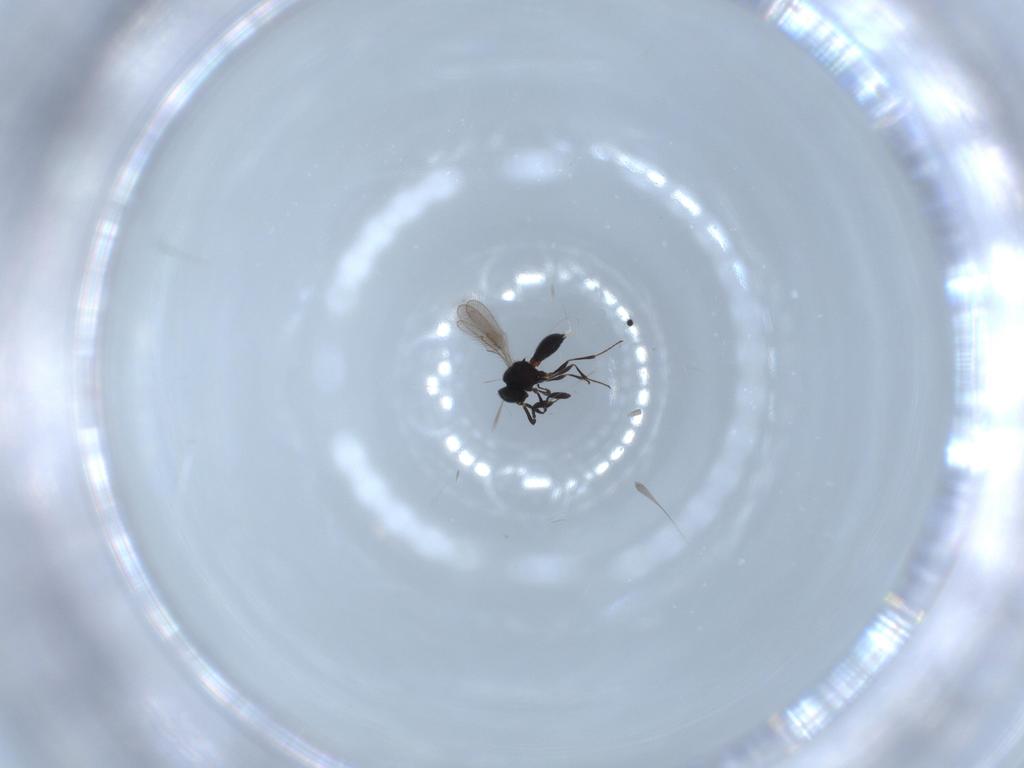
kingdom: Animalia
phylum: Arthropoda
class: Insecta
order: Hymenoptera
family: Scelionidae
